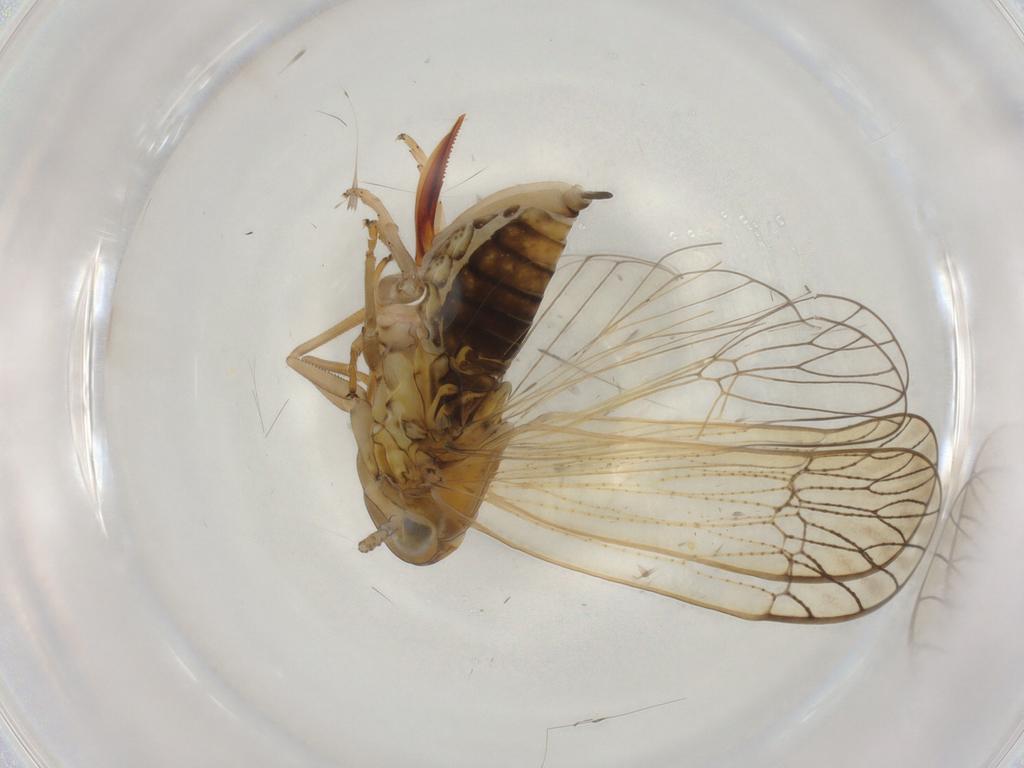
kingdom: Animalia
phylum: Arthropoda
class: Insecta
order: Hemiptera
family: Cicadellidae
